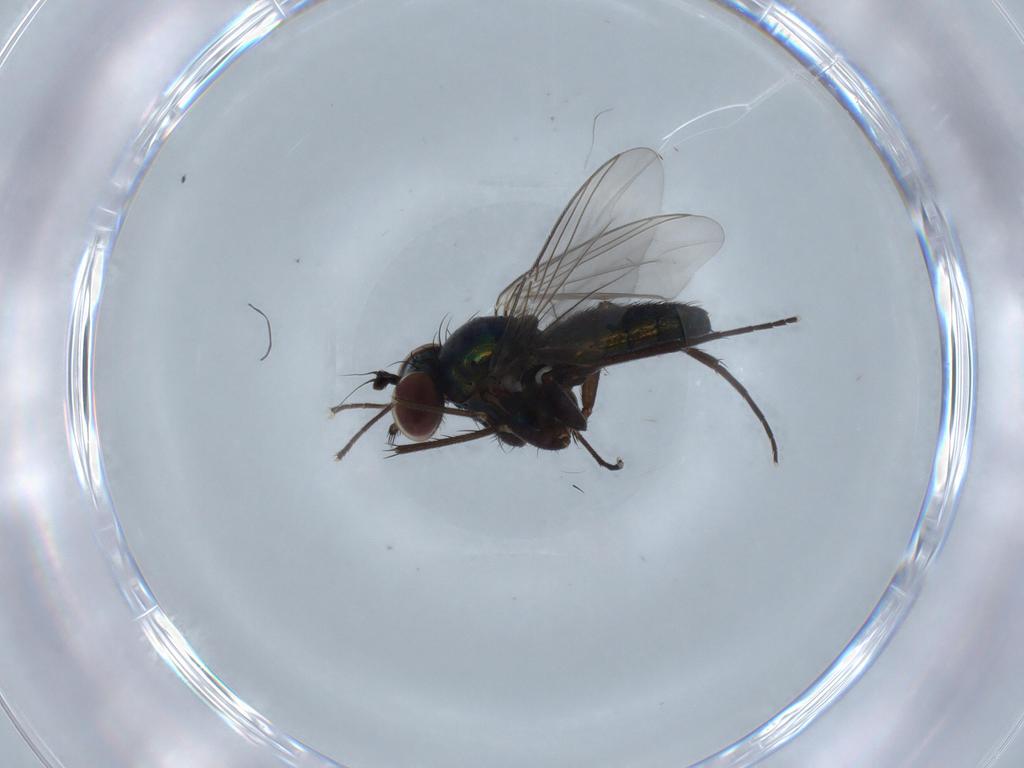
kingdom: Animalia
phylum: Arthropoda
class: Insecta
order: Diptera
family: Dolichopodidae
